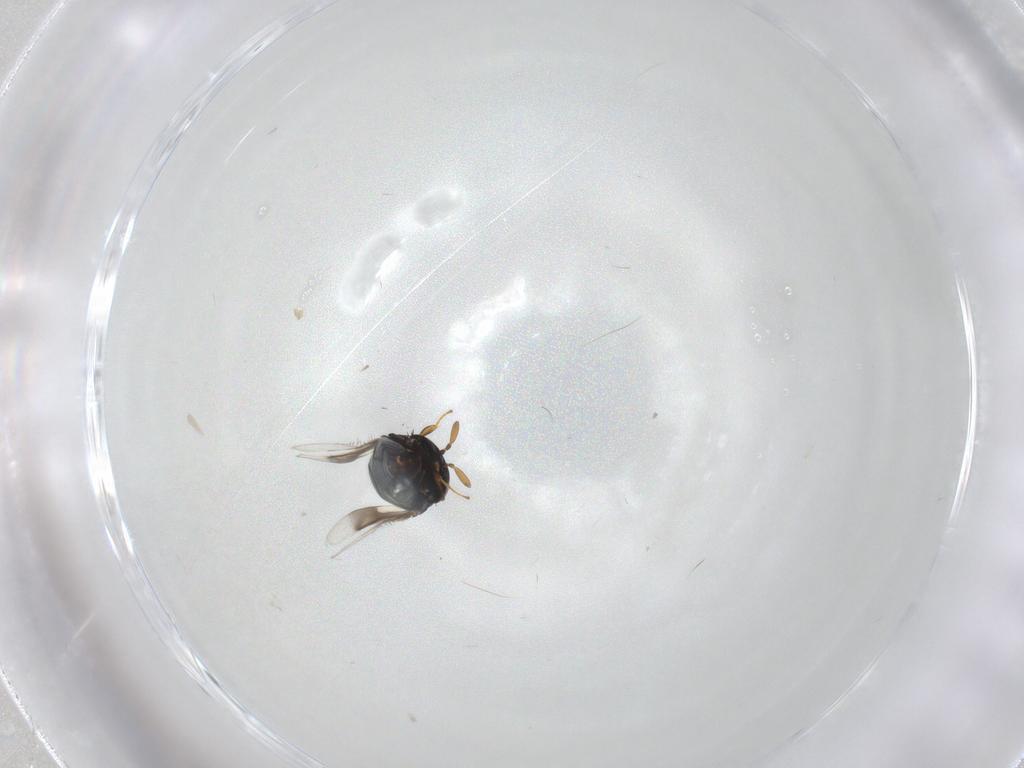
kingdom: Animalia
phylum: Arthropoda
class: Insecta
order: Hymenoptera
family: Signiphoridae
